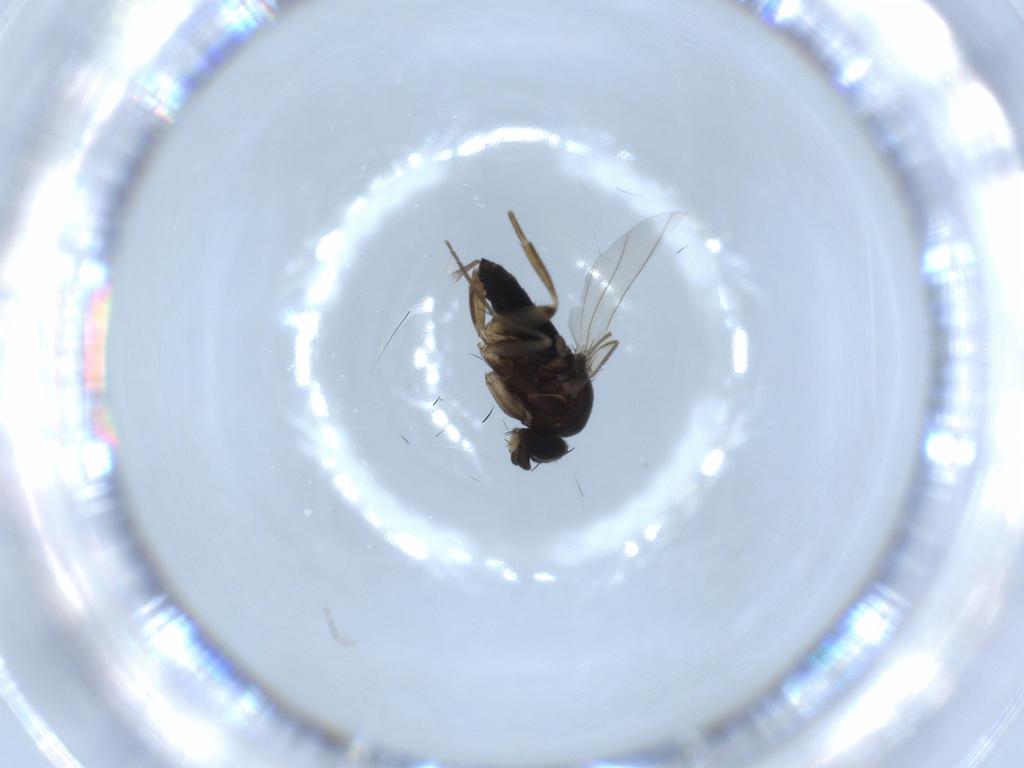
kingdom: Animalia
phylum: Arthropoda
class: Insecta
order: Diptera
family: Phoridae
